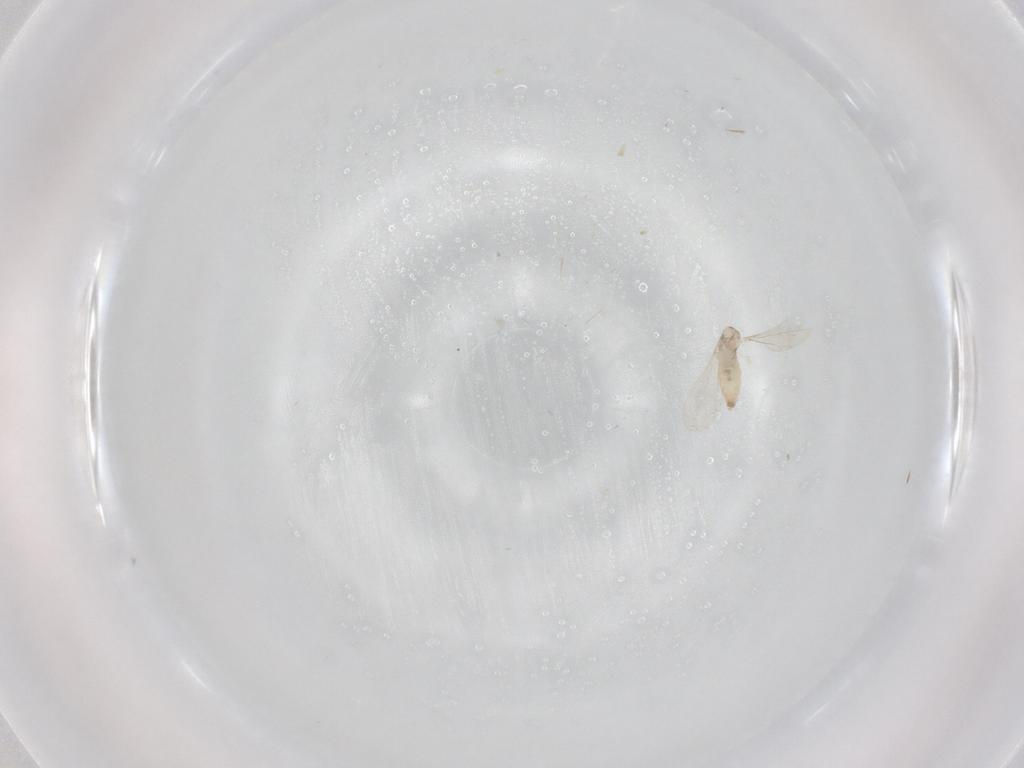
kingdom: Animalia
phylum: Arthropoda
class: Insecta
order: Diptera
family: Cecidomyiidae
